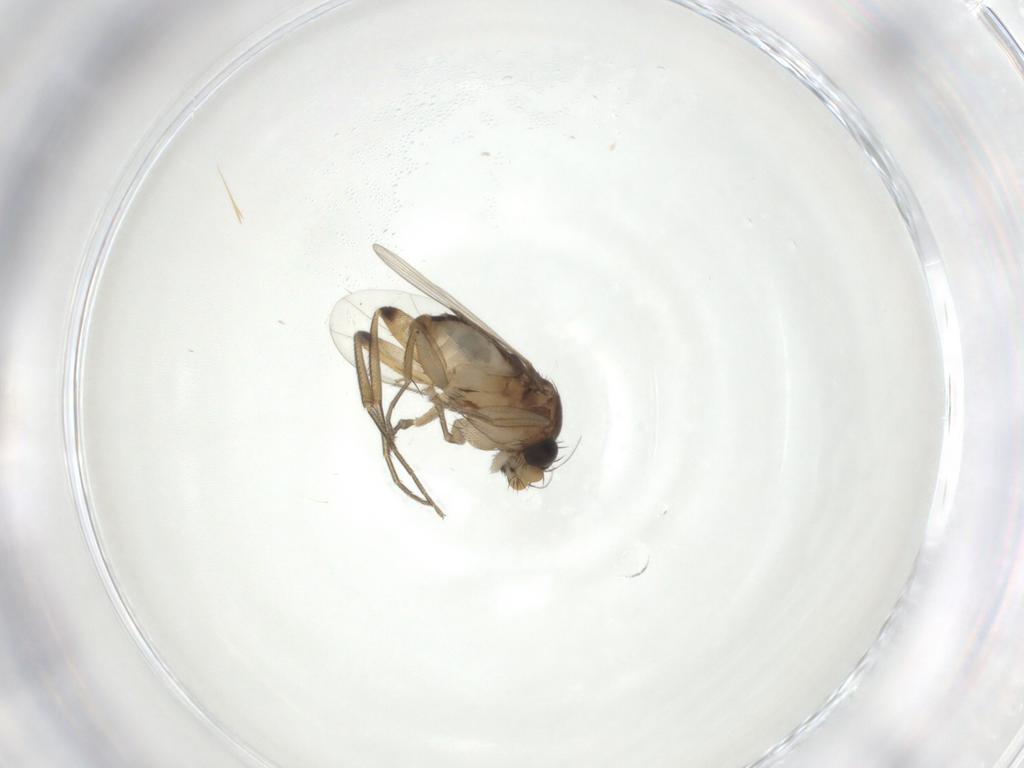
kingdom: Animalia
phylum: Arthropoda
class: Insecta
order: Diptera
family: Phoridae
